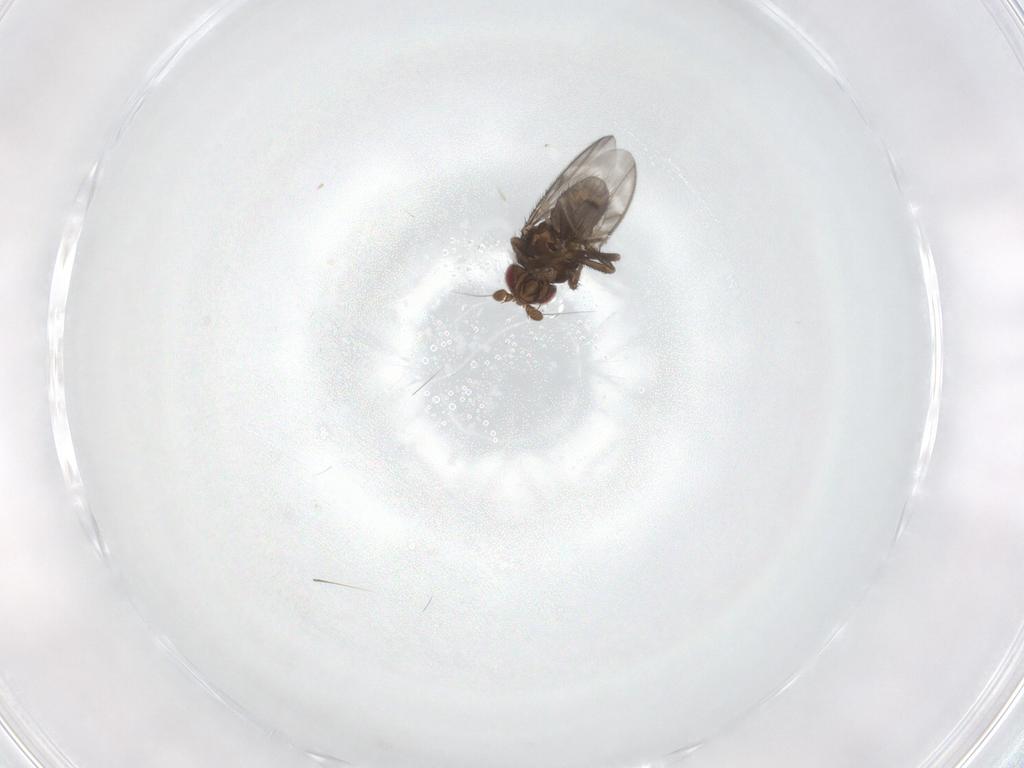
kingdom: Animalia
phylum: Arthropoda
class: Insecta
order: Diptera
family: Sphaeroceridae
